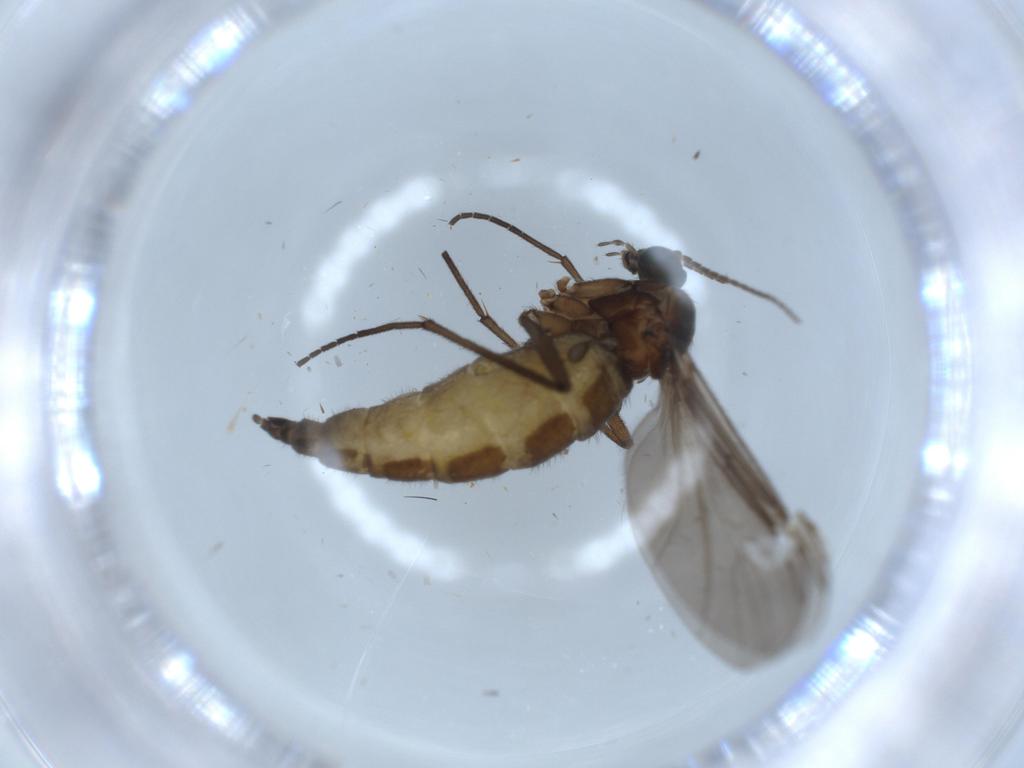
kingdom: Animalia
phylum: Arthropoda
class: Insecta
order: Diptera
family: Sciaridae
